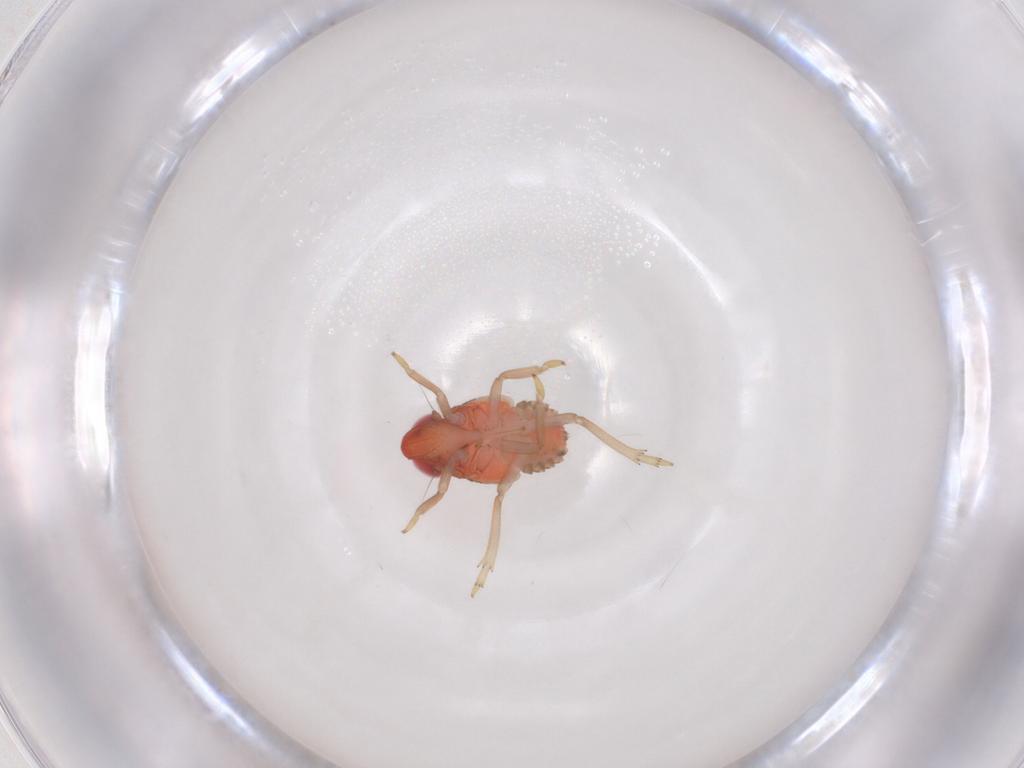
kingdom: Animalia
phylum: Arthropoda
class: Insecta
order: Hemiptera
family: Issidae
